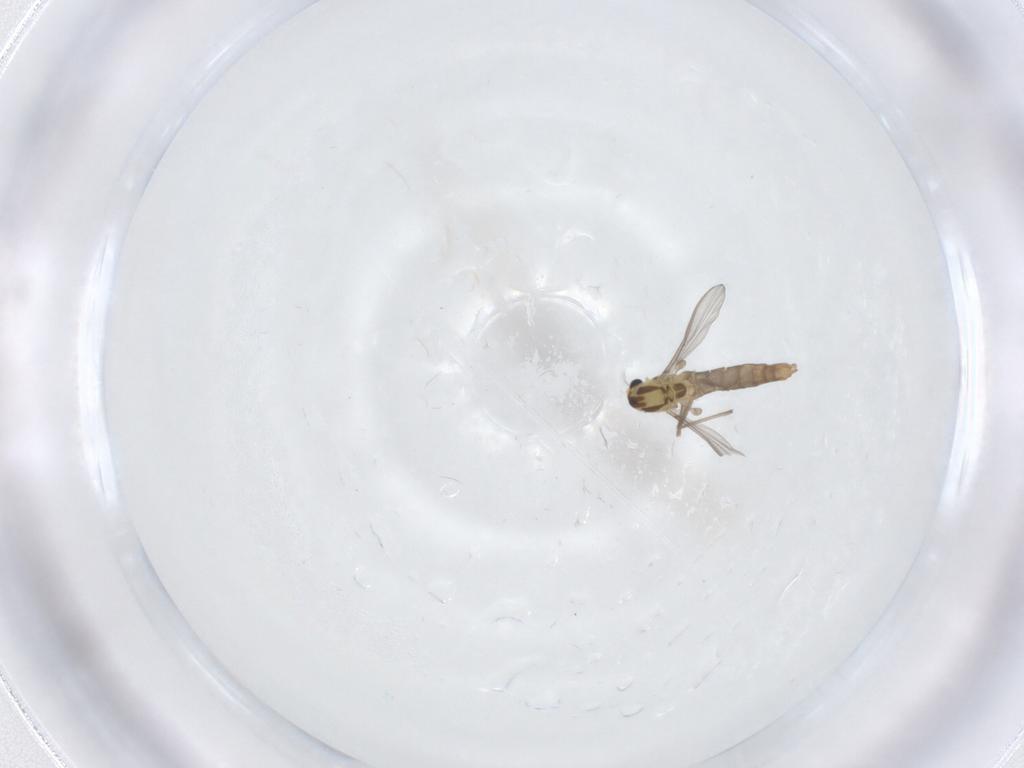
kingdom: Animalia
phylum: Arthropoda
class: Insecta
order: Diptera
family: Chironomidae
